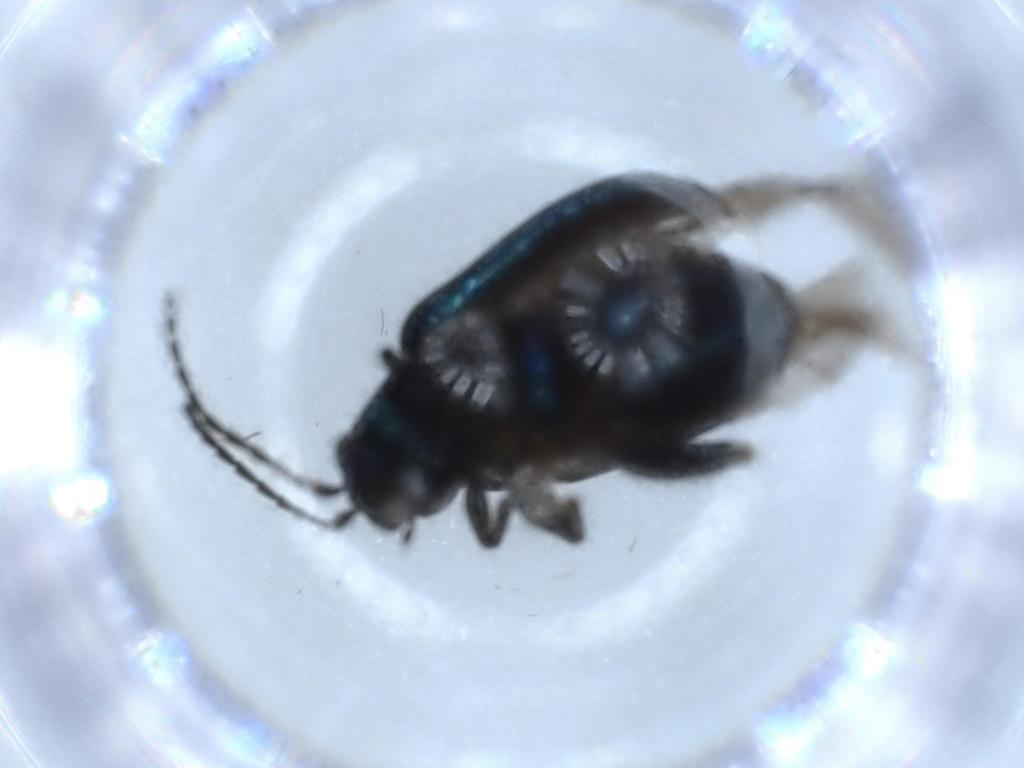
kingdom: Animalia
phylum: Arthropoda
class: Insecta
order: Coleoptera
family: Chrysomelidae
